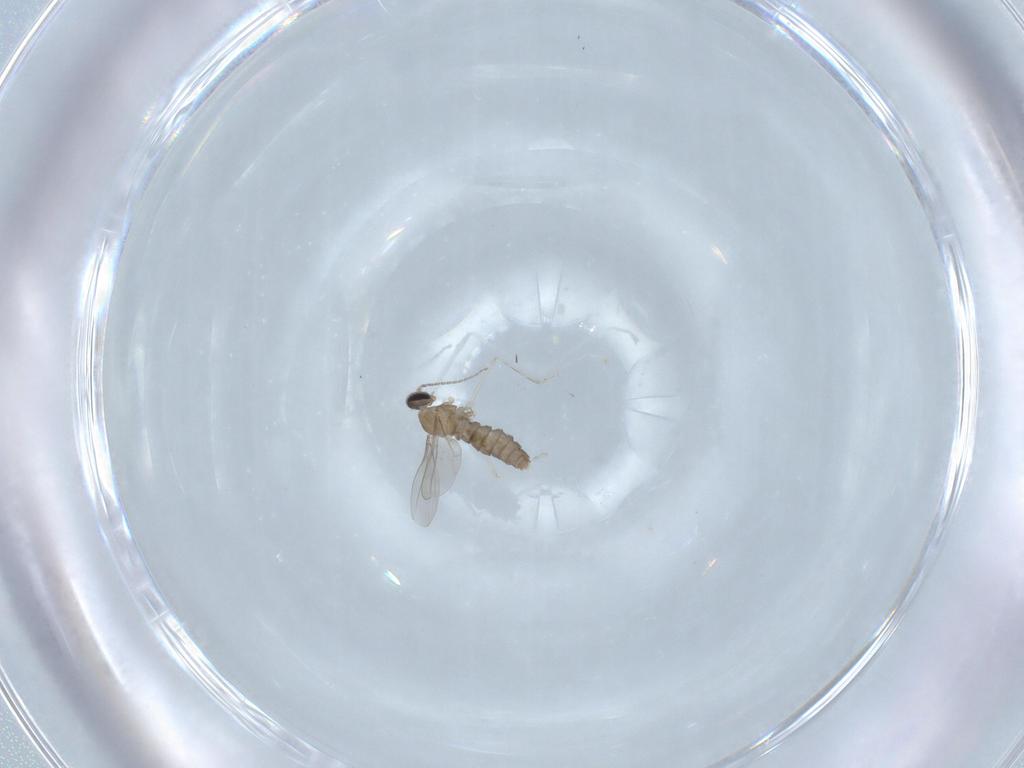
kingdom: Animalia
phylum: Arthropoda
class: Insecta
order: Diptera
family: Cecidomyiidae
